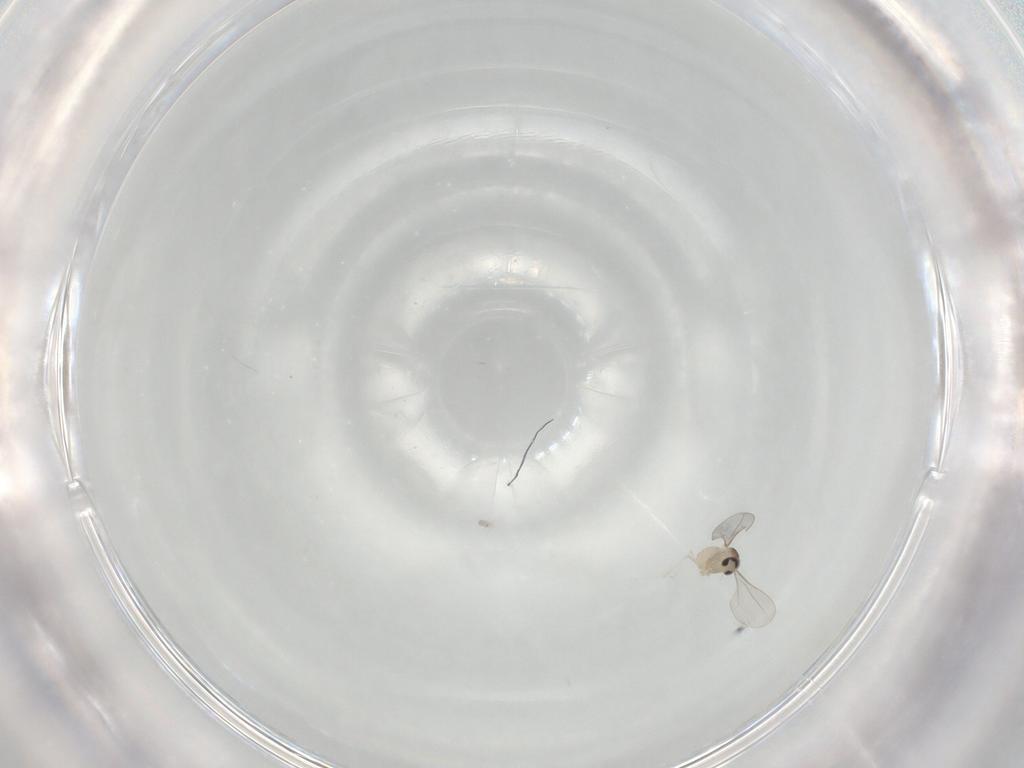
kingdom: Animalia
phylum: Arthropoda
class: Insecta
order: Diptera
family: Cecidomyiidae
